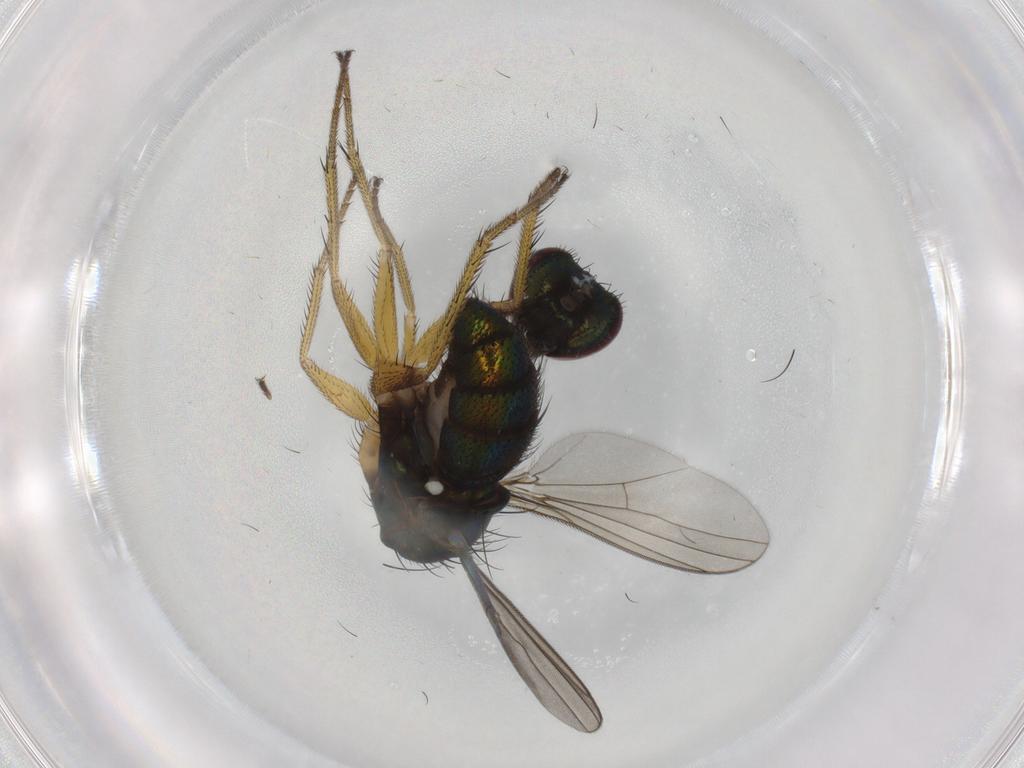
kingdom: Animalia
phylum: Arthropoda
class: Insecta
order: Diptera
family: Dolichopodidae
